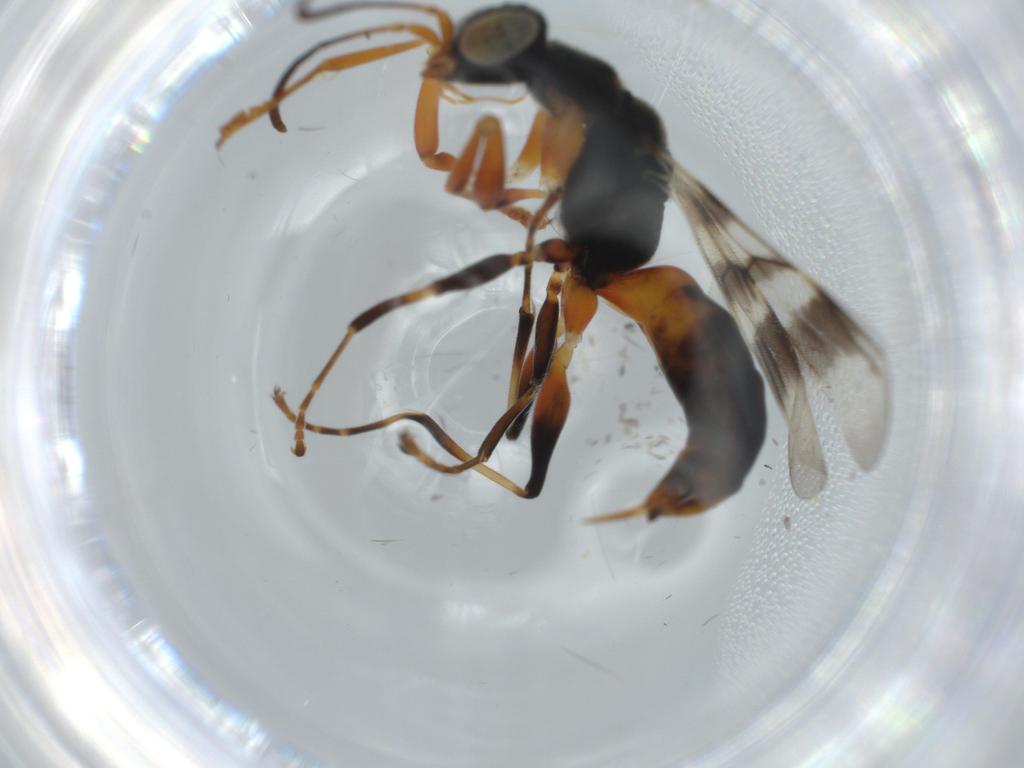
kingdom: Animalia
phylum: Arthropoda
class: Insecta
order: Hymenoptera
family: Dryinidae
